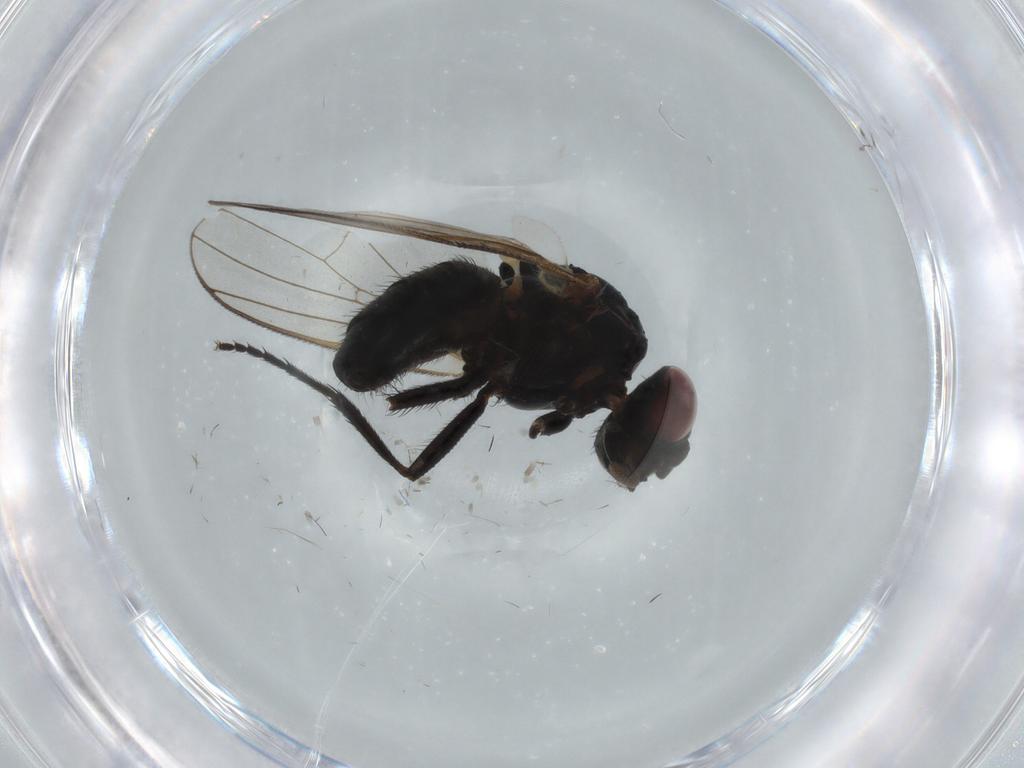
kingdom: Animalia
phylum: Arthropoda
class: Insecta
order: Diptera
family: Fannia
